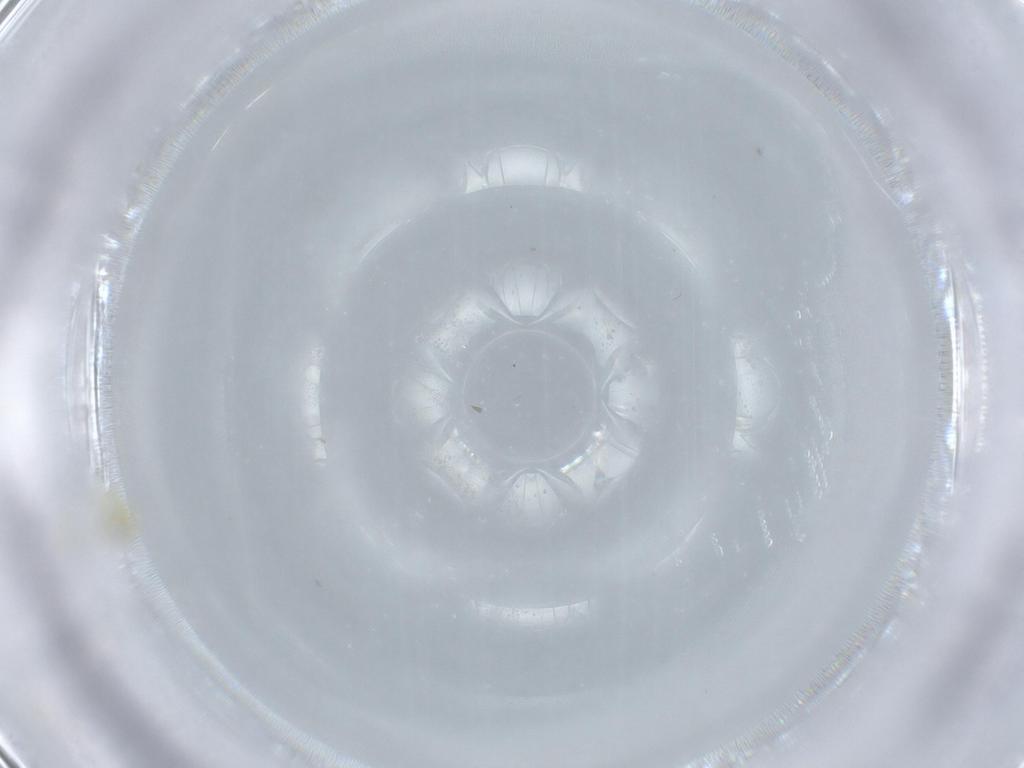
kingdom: Animalia
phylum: Arthropoda
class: Insecta
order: Hemiptera
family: Aleyrodidae
